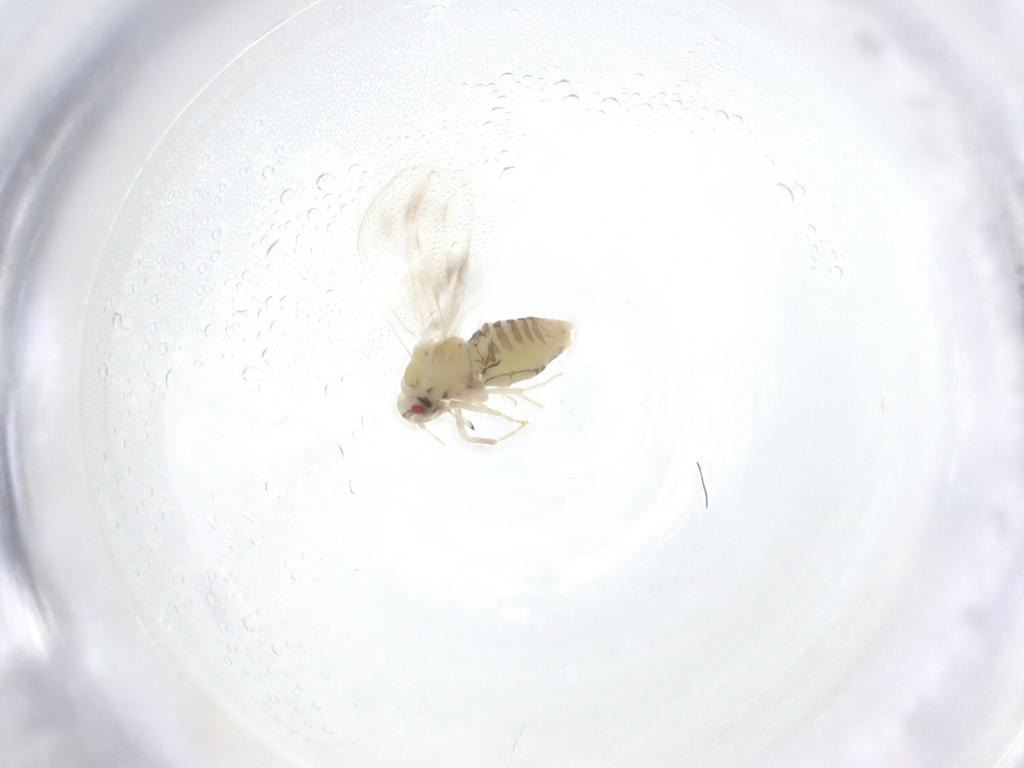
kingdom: Animalia
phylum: Arthropoda
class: Insecta
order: Hemiptera
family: Aleyrodidae
